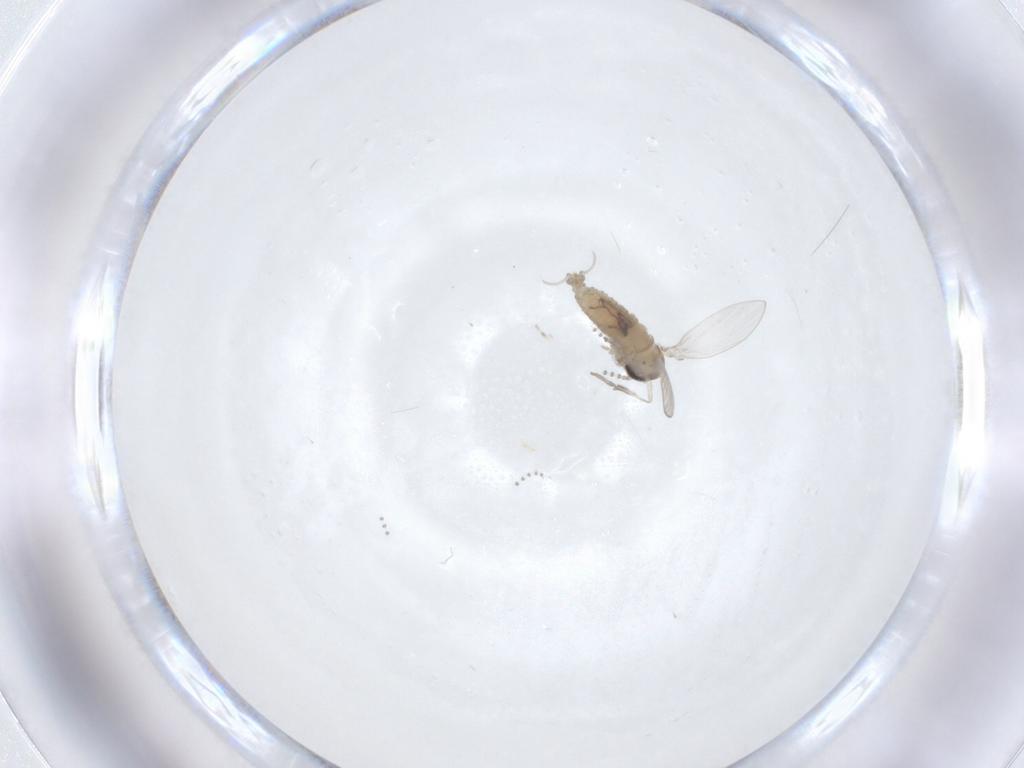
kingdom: Animalia
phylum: Arthropoda
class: Insecta
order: Diptera
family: Psychodidae
